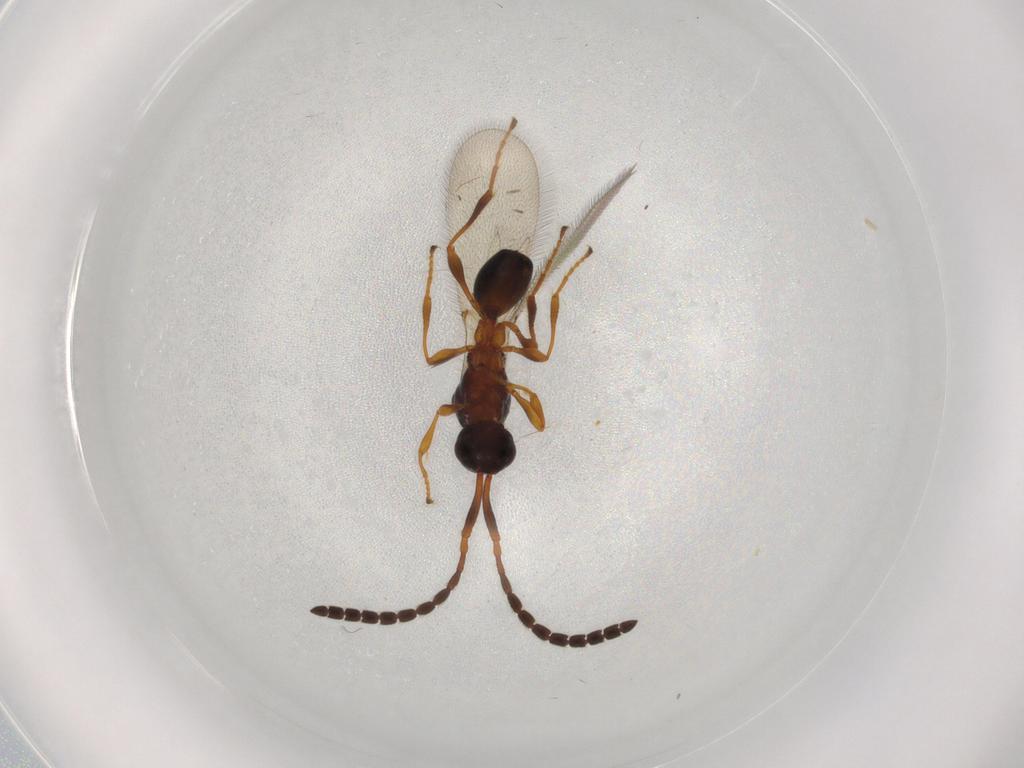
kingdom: Animalia
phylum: Arthropoda
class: Insecta
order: Hymenoptera
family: Diapriidae
